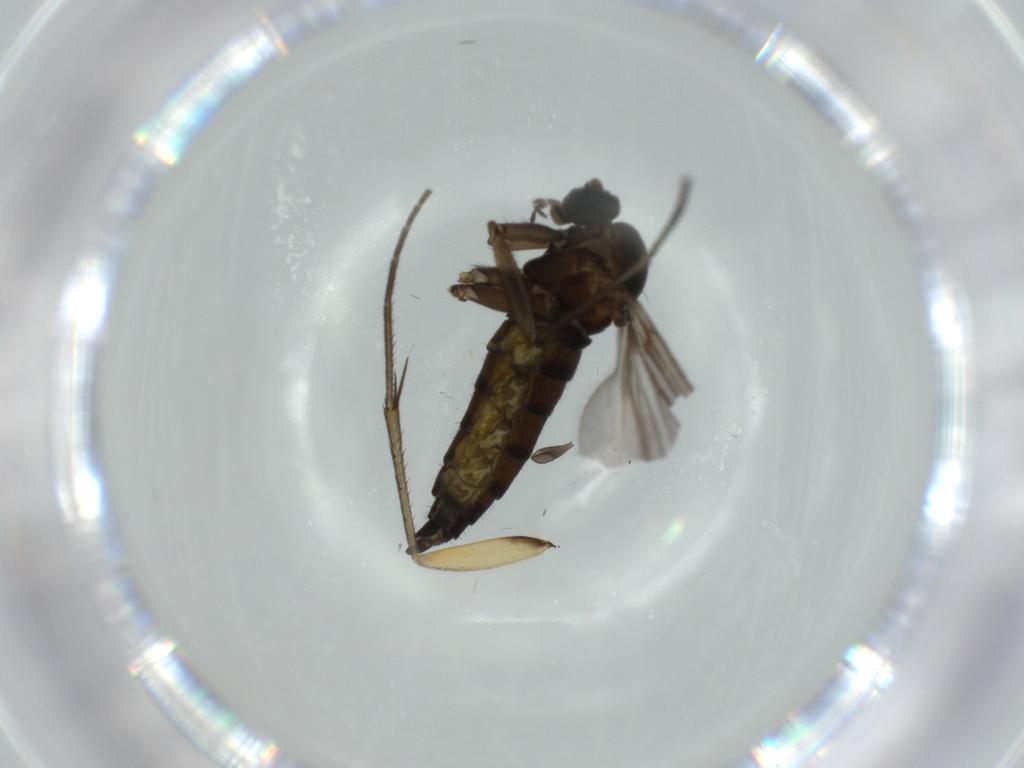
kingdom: Animalia
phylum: Arthropoda
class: Insecta
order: Diptera
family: Sciaridae
